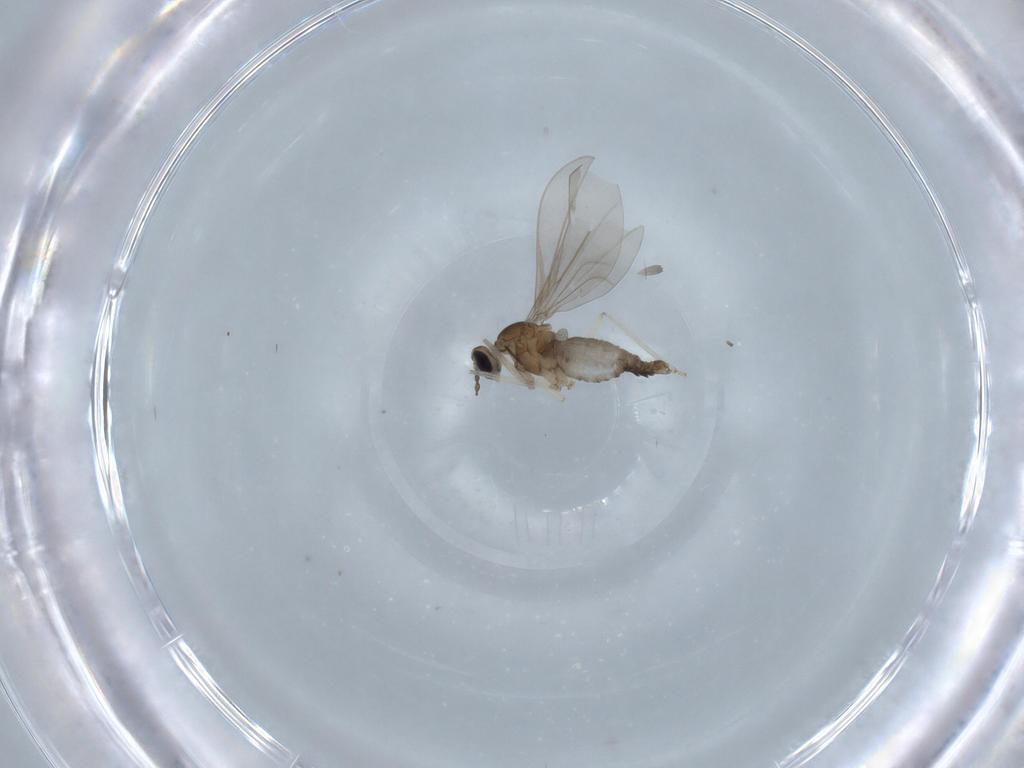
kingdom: Animalia
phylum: Arthropoda
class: Insecta
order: Diptera
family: Cecidomyiidae
